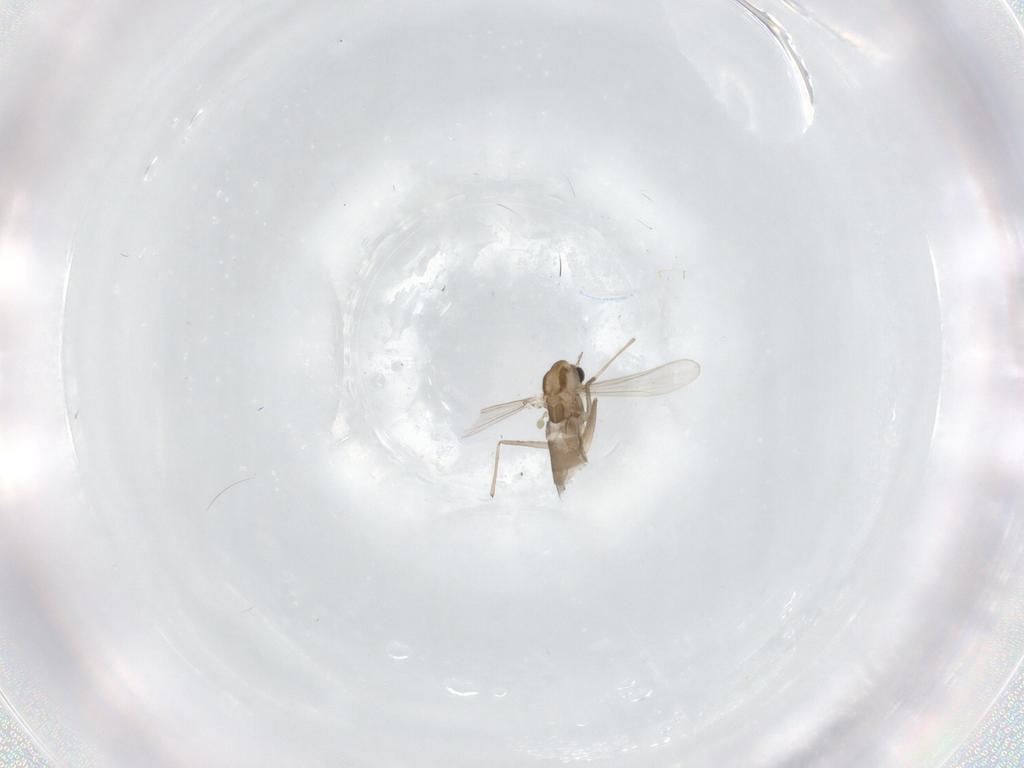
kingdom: Animalia
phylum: Arthropoda
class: Insecta
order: Diptera
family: Chironomidae
